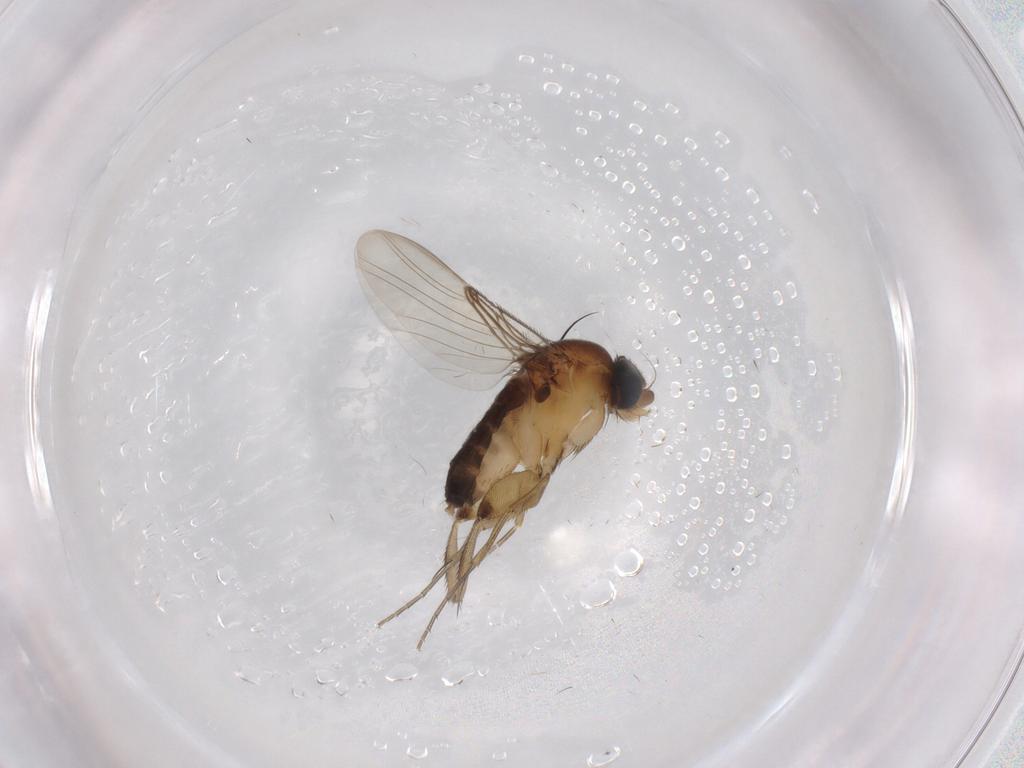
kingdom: Animalia
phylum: Arthropoda
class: Insecta
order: Diptera
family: Phoridae
